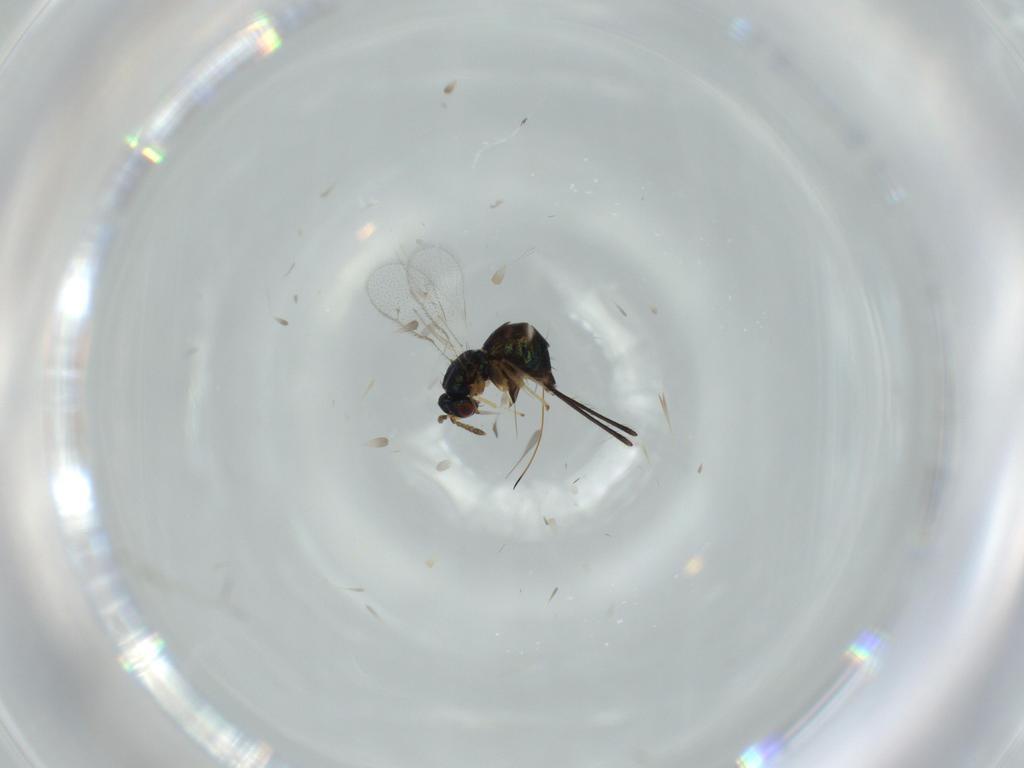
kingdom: Animalia
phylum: Arthropoda
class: Insecta
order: Hymenoptera
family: Torymidae
